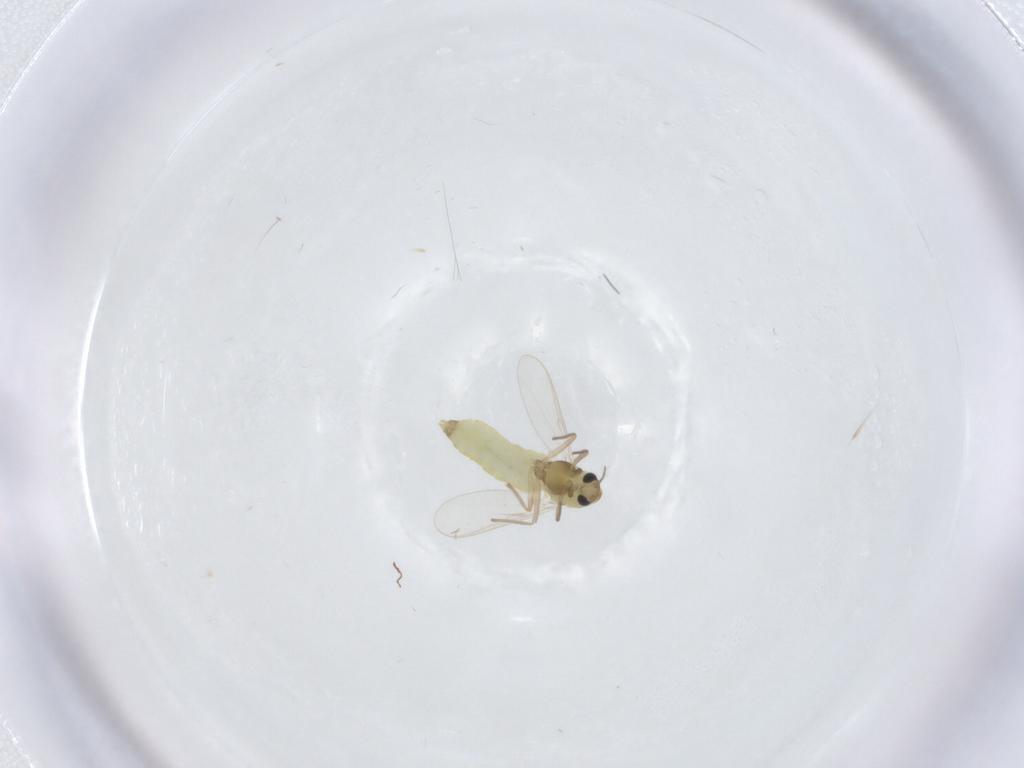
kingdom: Animalia
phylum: Arthropoda
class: Insecta
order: Diptera
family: Chironomidae
